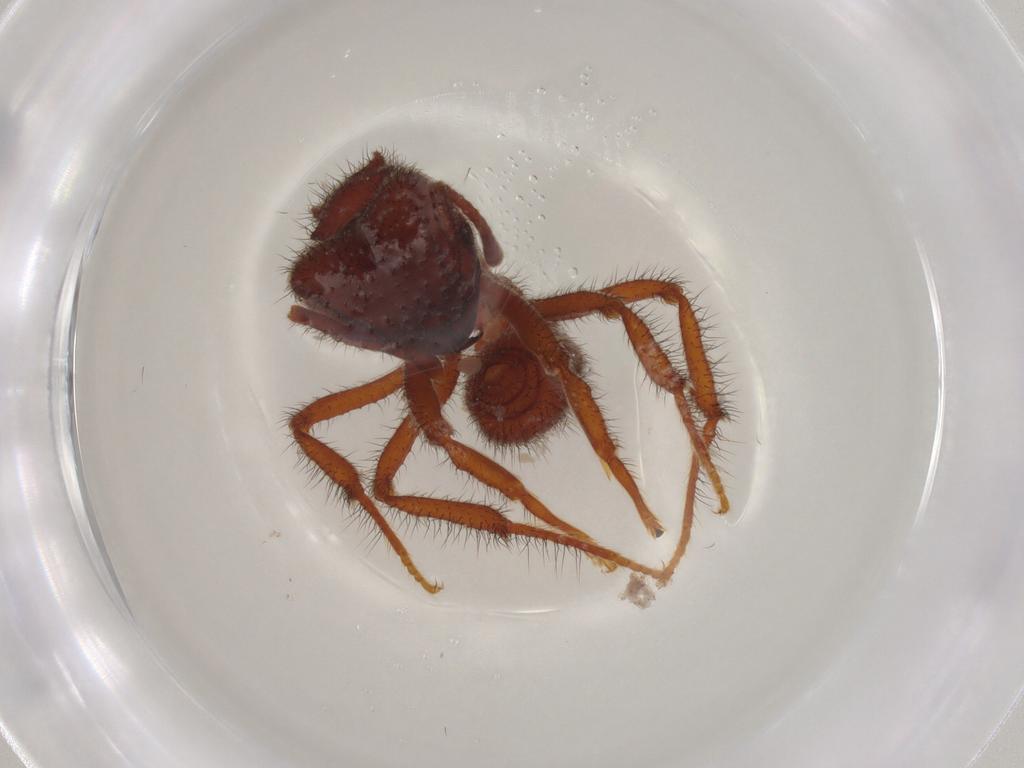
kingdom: Animalia
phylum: Arthropoda
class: Insecta
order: Hymenoptera
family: Formicidae
